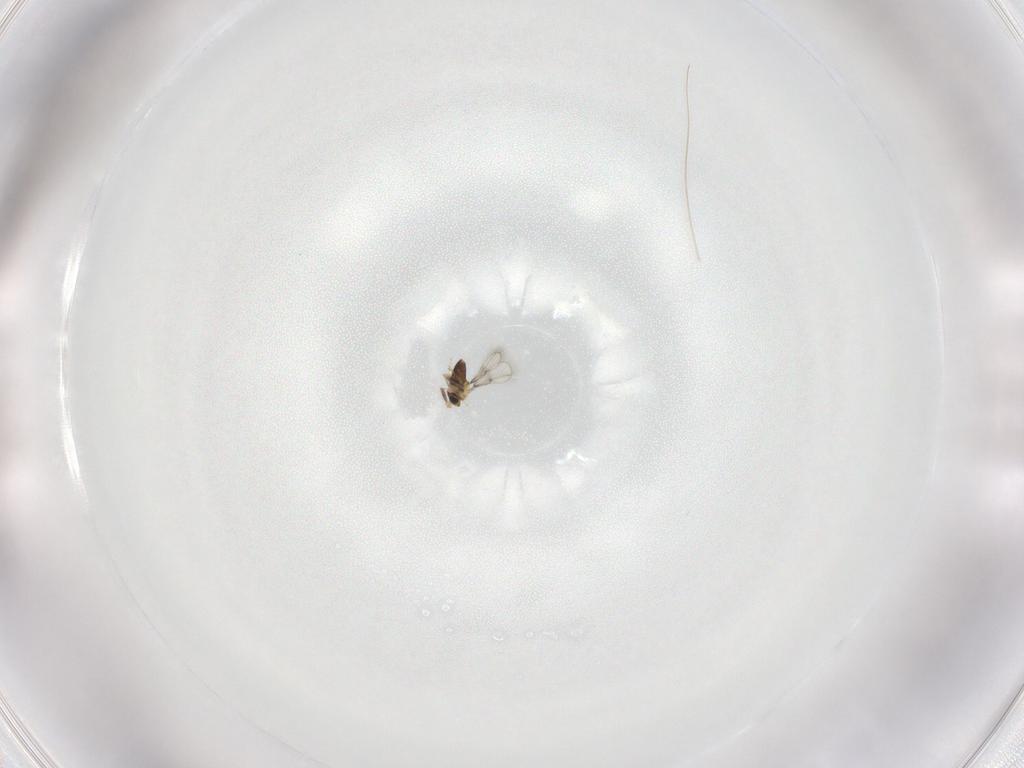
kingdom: Animalia
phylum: Arthropoda
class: Insecta
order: Hymenoptera
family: Trichogrammatidae
